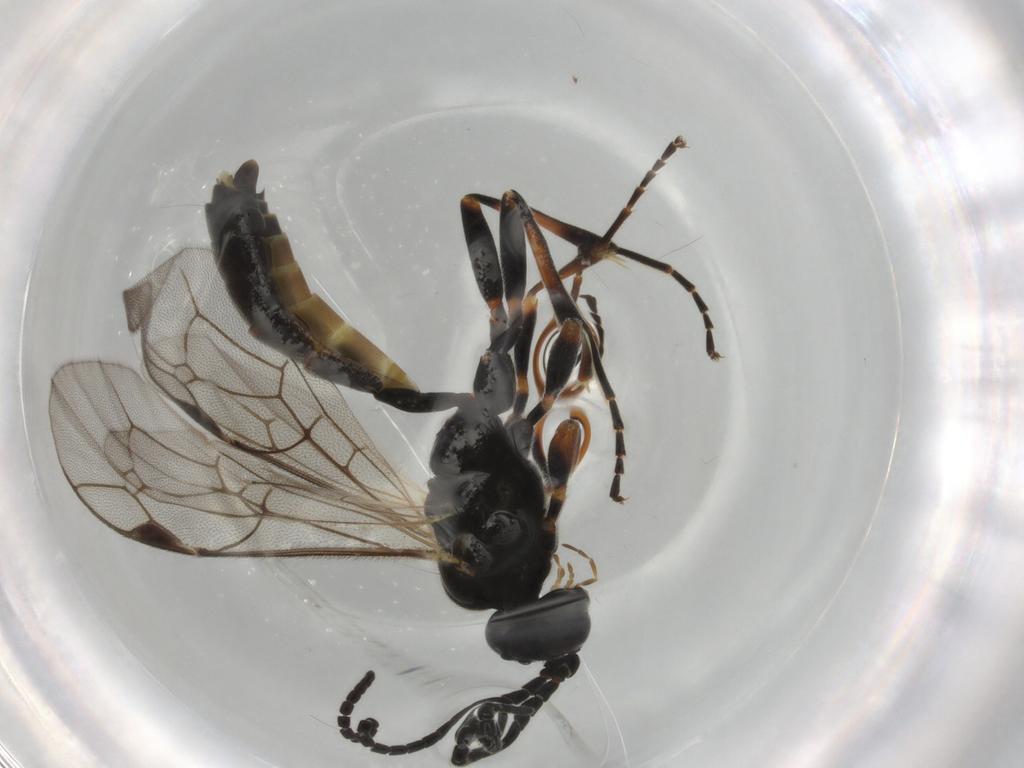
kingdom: Animalia
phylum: Arthropoda
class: Insecta
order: Hymenoptera
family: Ichneumonidae
